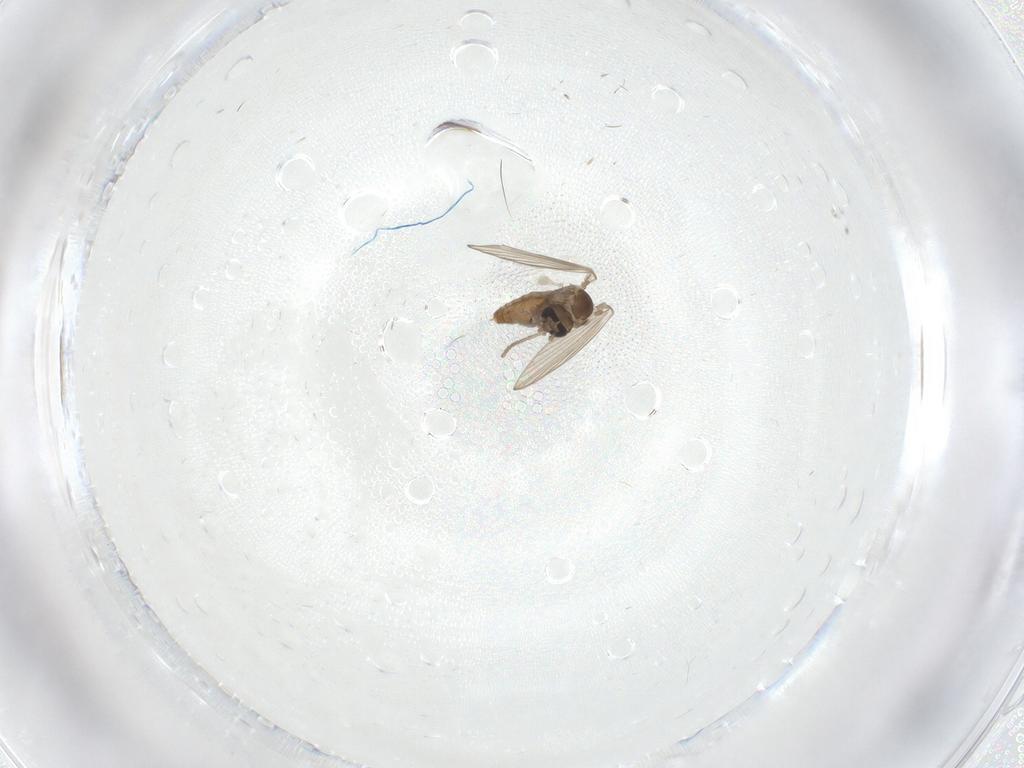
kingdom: Animalia
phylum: Arthropoda
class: Insecta
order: Diptera
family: Psychodidae
